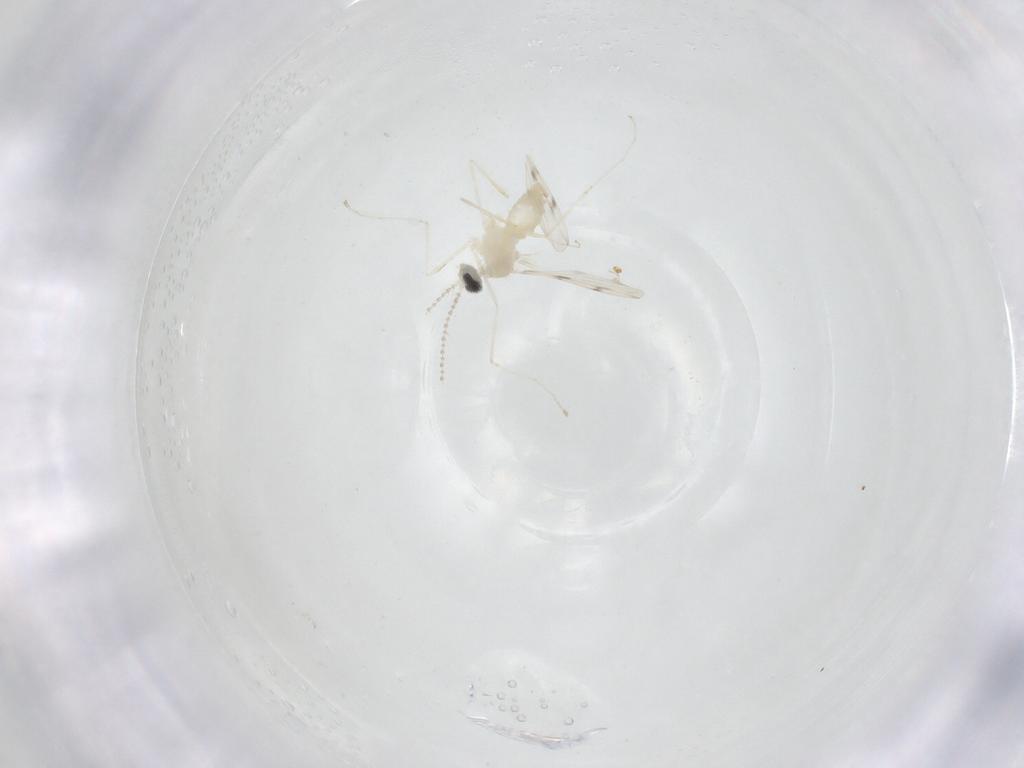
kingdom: Animalia
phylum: Arthropoda
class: Insecta
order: Diptera
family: Cecidomyiidae
